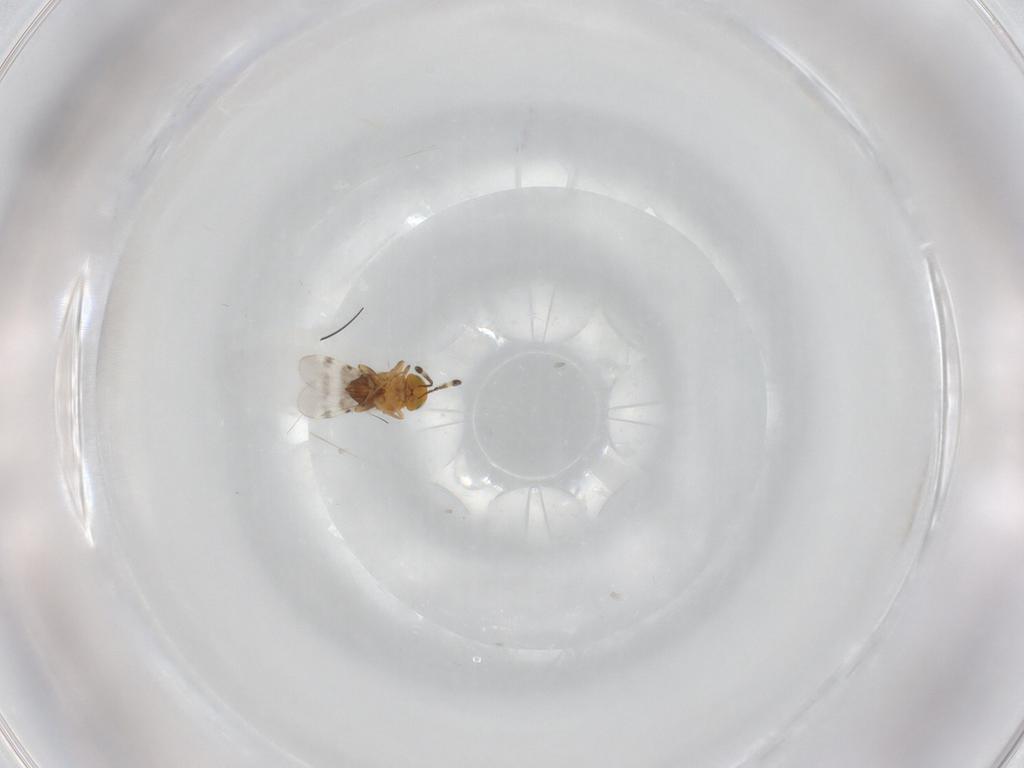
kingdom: Animalia
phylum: Arthropoda
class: Insecta
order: Hymenoptera
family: Encyrtidae
